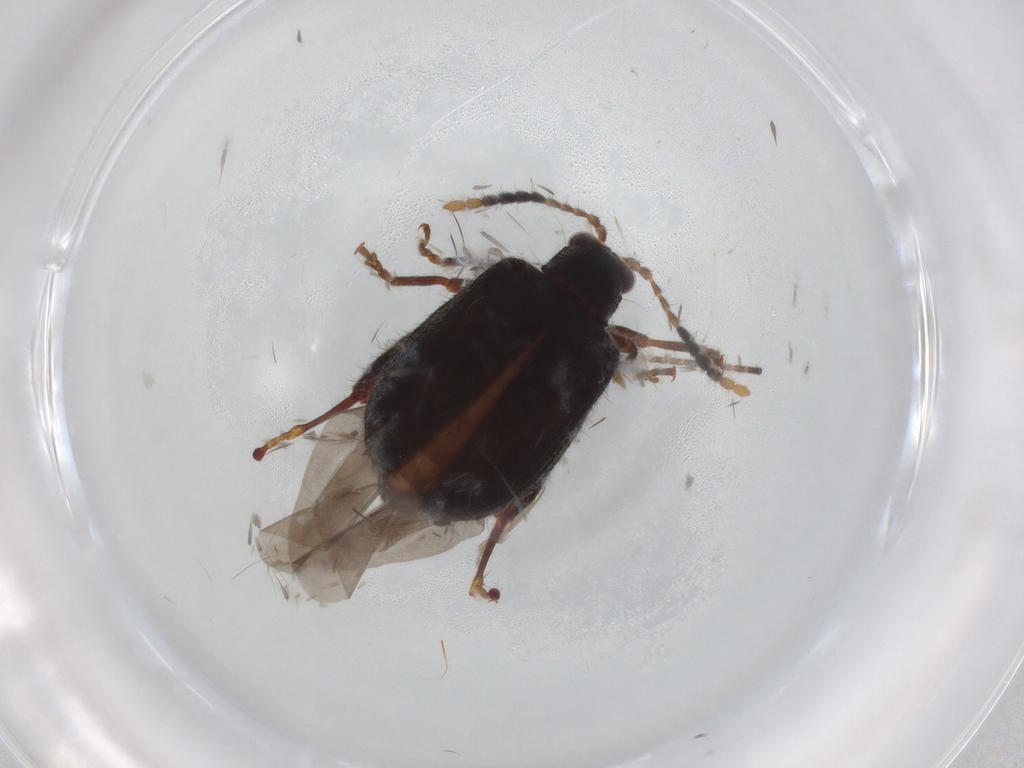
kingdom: Animalia
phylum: Arthropoda
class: Insecta
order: Coleoptera
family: Chrysomelidae
